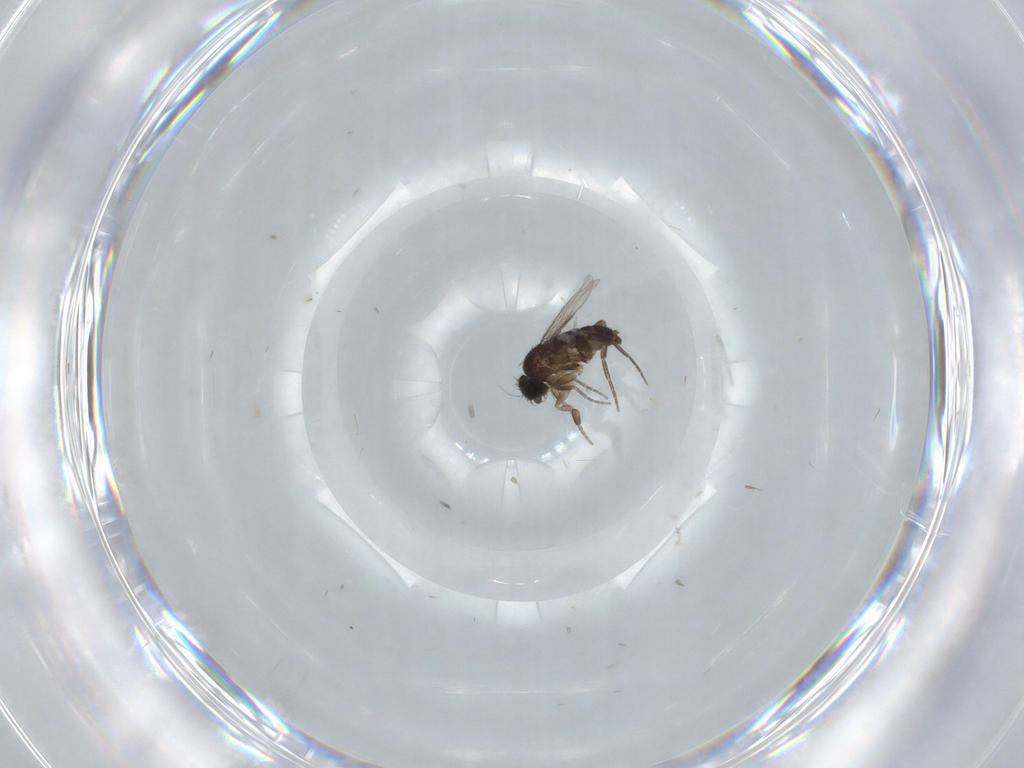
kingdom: Animalia
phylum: Arthropoda
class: Insecta
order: Diptera
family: Phoridae
